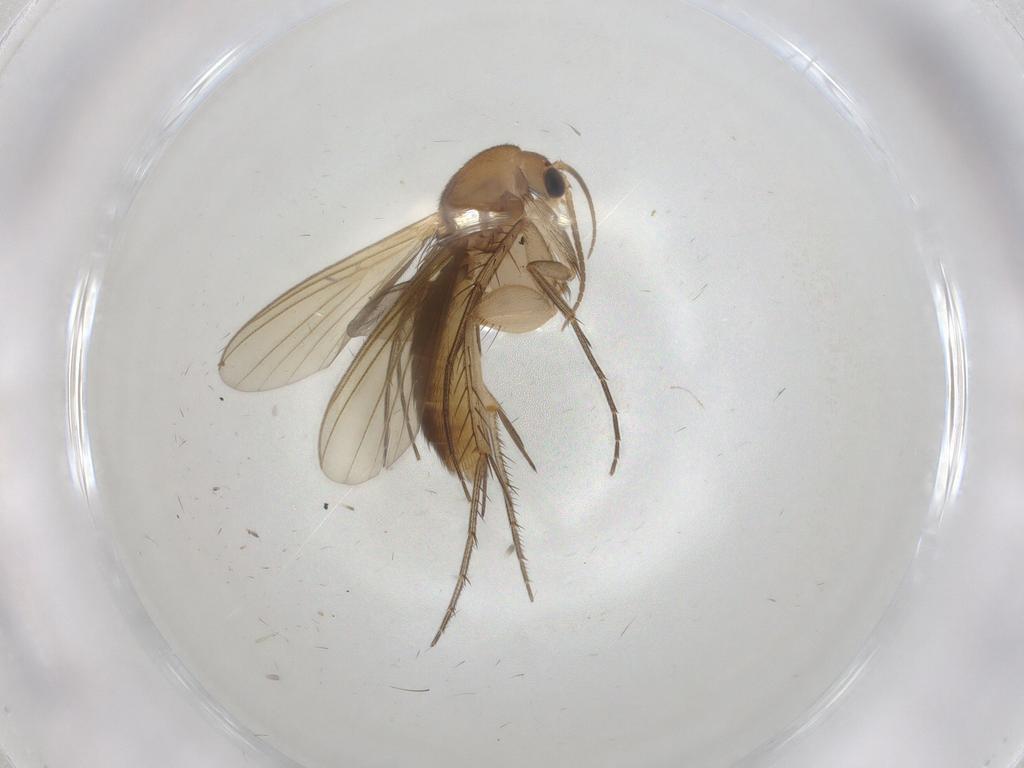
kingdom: Animalia
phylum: Arthropoda
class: Insecta
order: Diptera
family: Mycetophilidae
